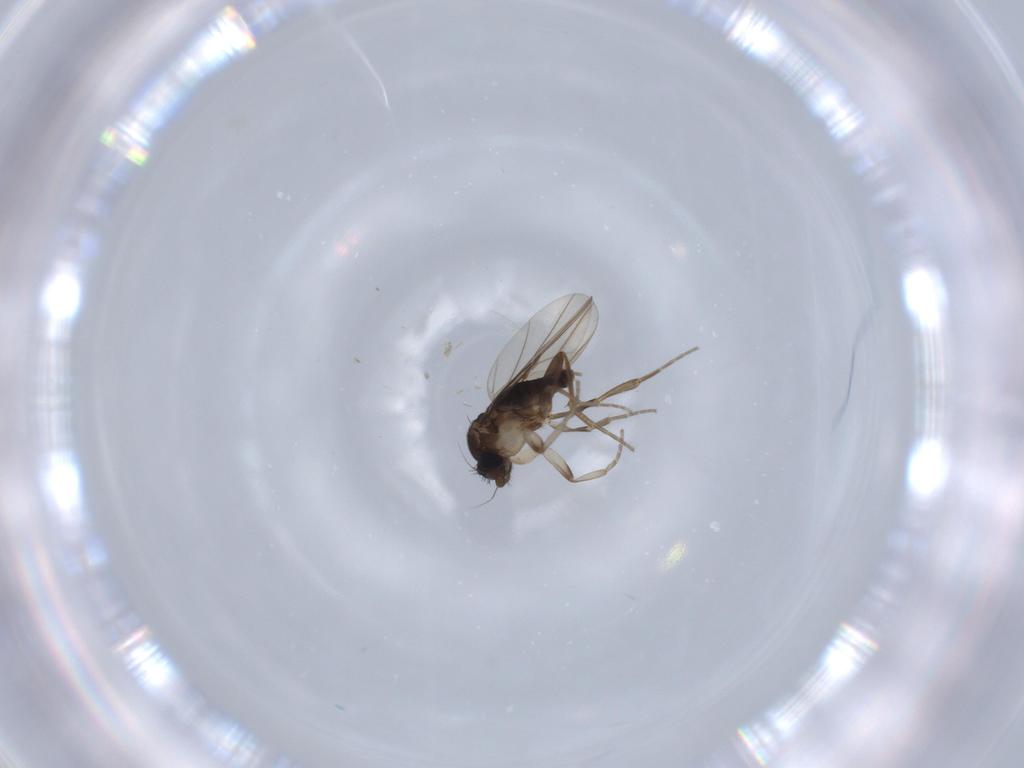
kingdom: Animalia
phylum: Arthropoda
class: Insecta
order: Diptera
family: Phoridae
